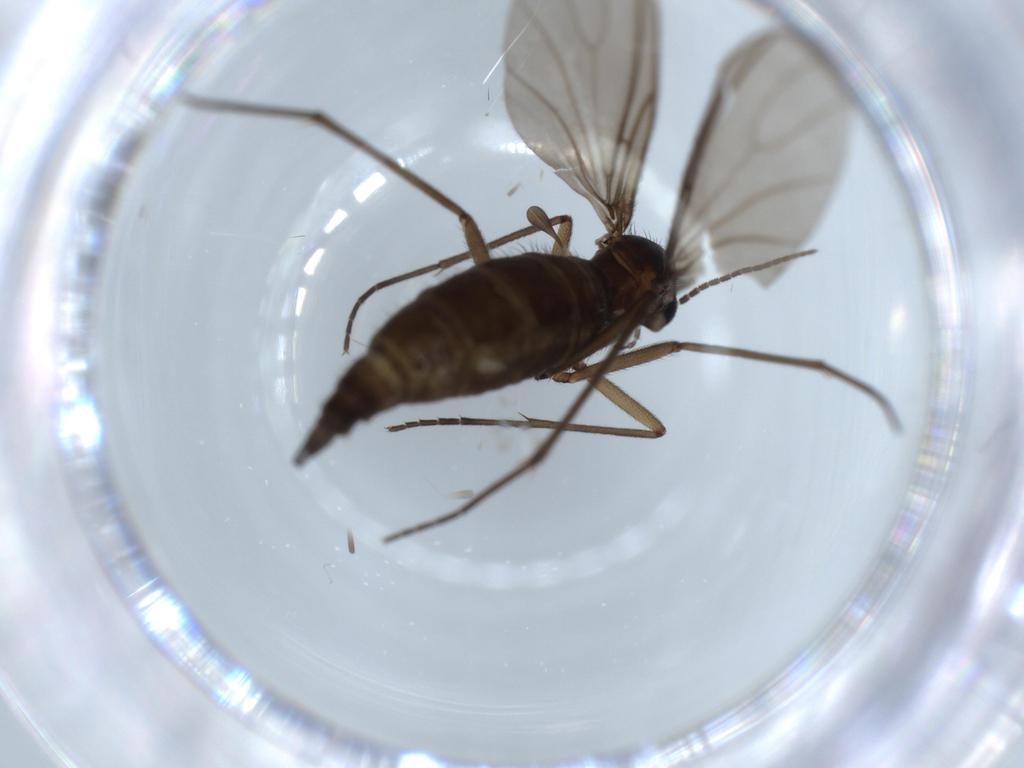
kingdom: Animalia
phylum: Arthropoda
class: Insecta
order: Diptera
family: Sciaridae
